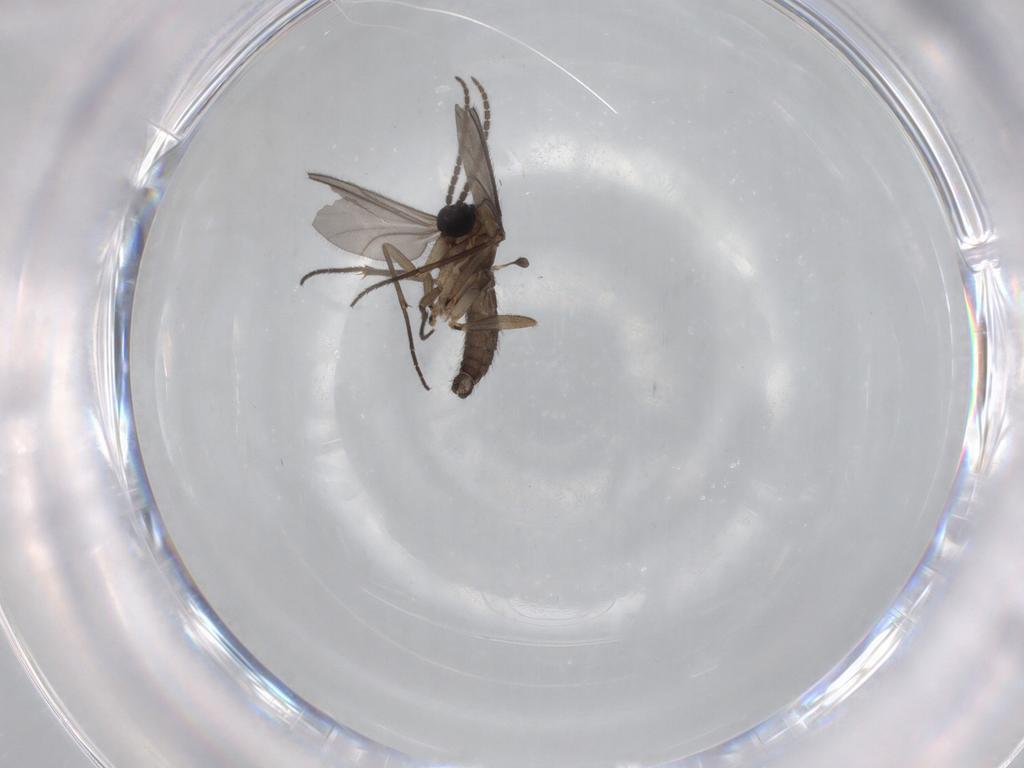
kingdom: Animalia
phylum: Arthropoda
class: Insecta
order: Diptera
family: Sciaridae
